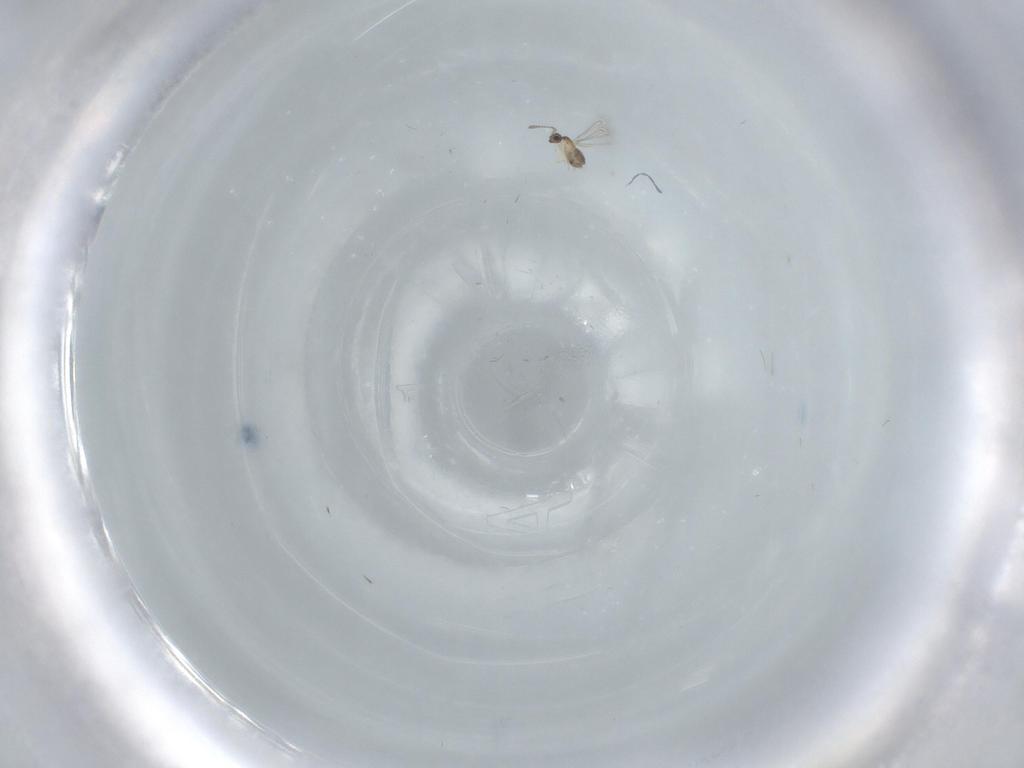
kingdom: Animalia
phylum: Arthropoda
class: Insecta
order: Diptera
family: Sciaridae
